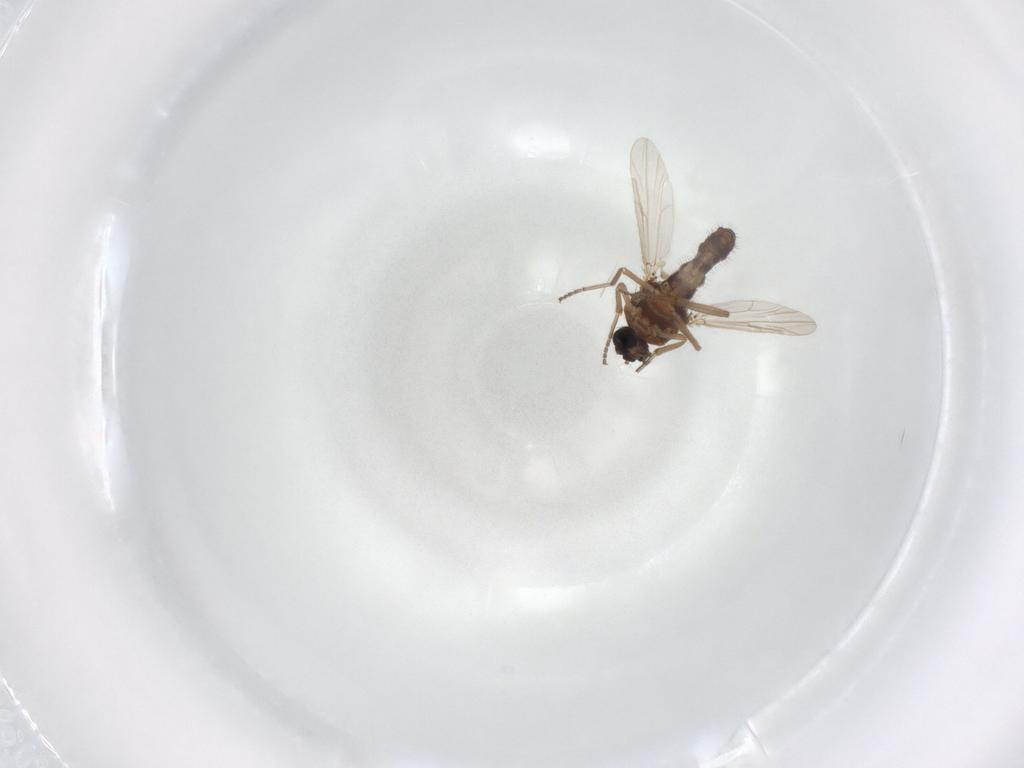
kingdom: Animalia
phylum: Arthropoda
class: Insecta
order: Diptera
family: Ceratopogonidae
